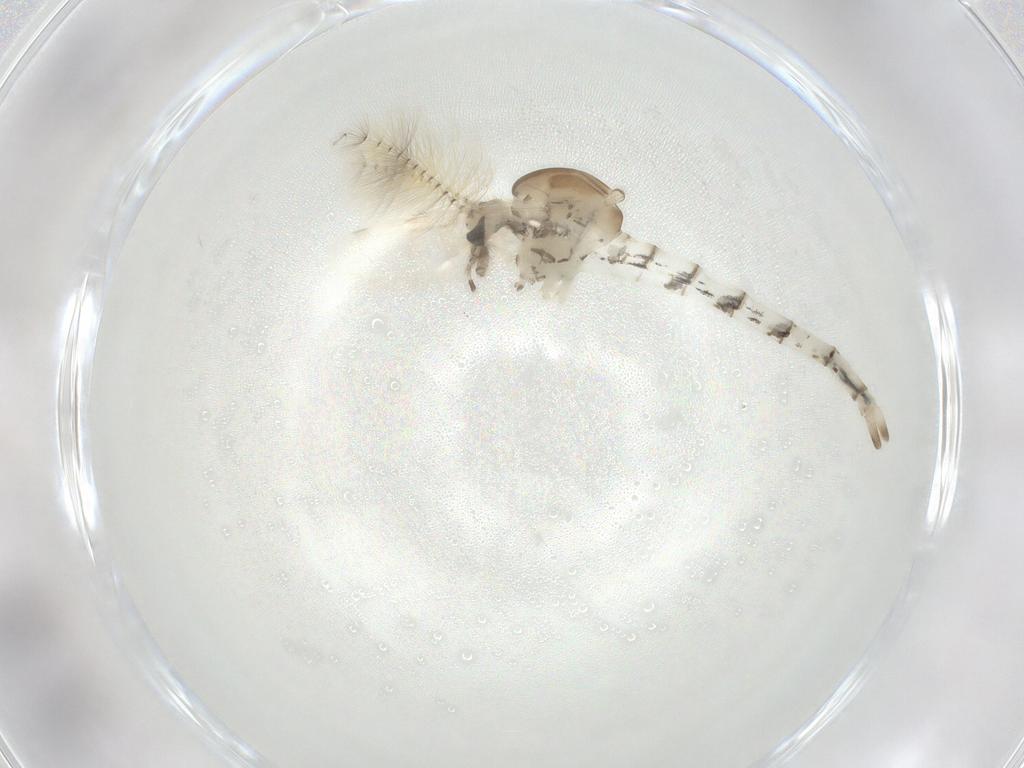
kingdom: Animalia
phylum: Arthropoda
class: Insecta
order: Diptera
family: Chaoboridae
